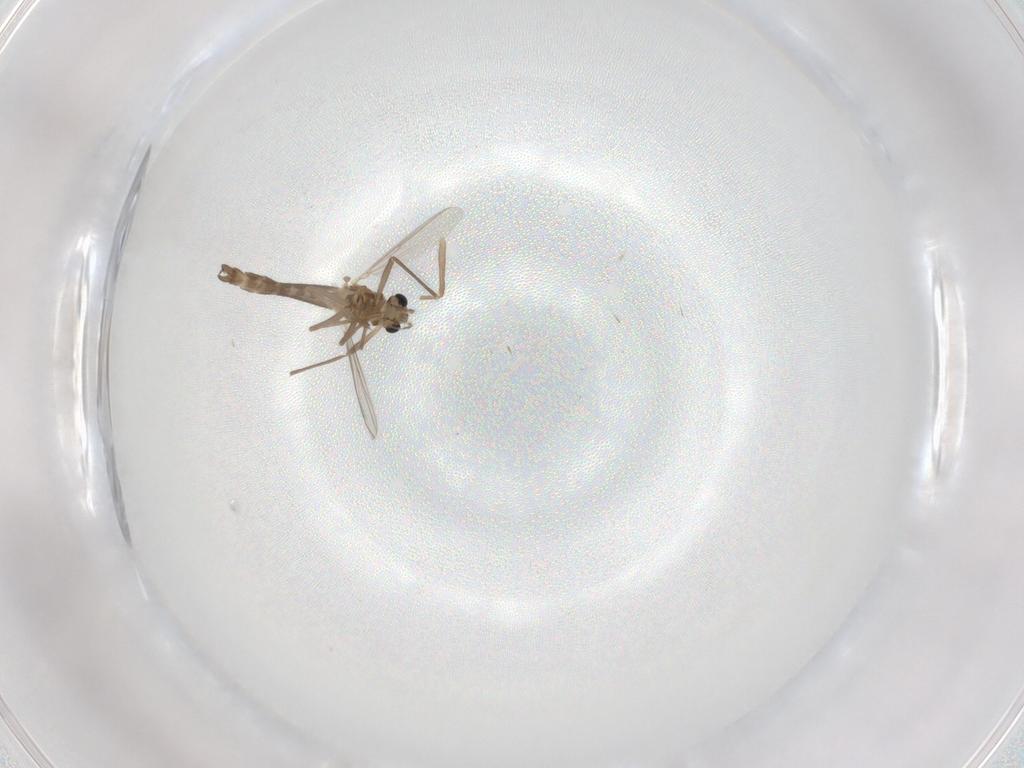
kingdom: Animalia
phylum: Arthropoda
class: Insecta
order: Diptera
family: Chironomidae
